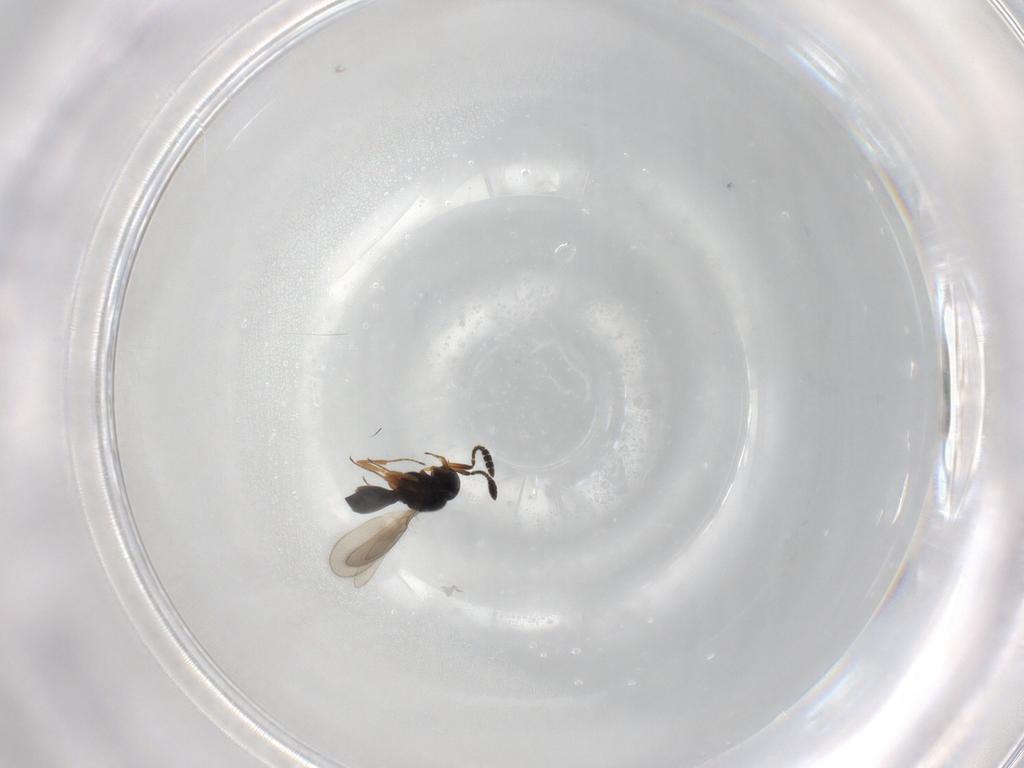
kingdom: Animalia
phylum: Arthropoda
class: Insecta
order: Hymenoptera
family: Scelionidae
